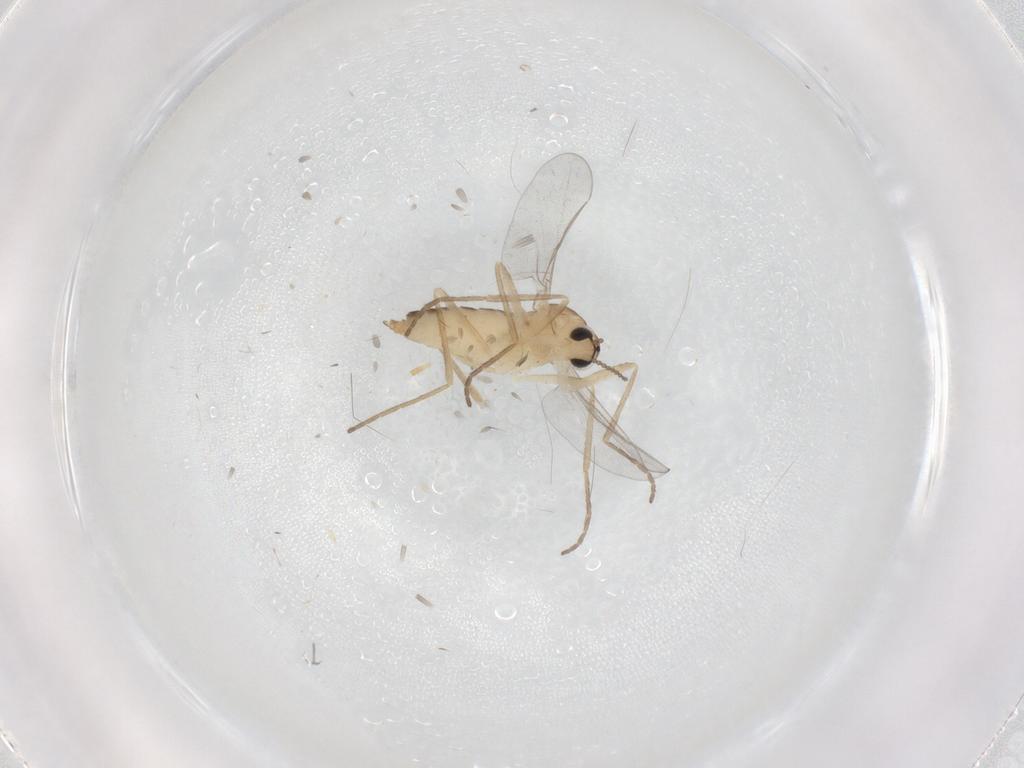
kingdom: Animalia
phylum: Arthropoda
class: Insecta
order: Diptera
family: Cecidomyiidae
